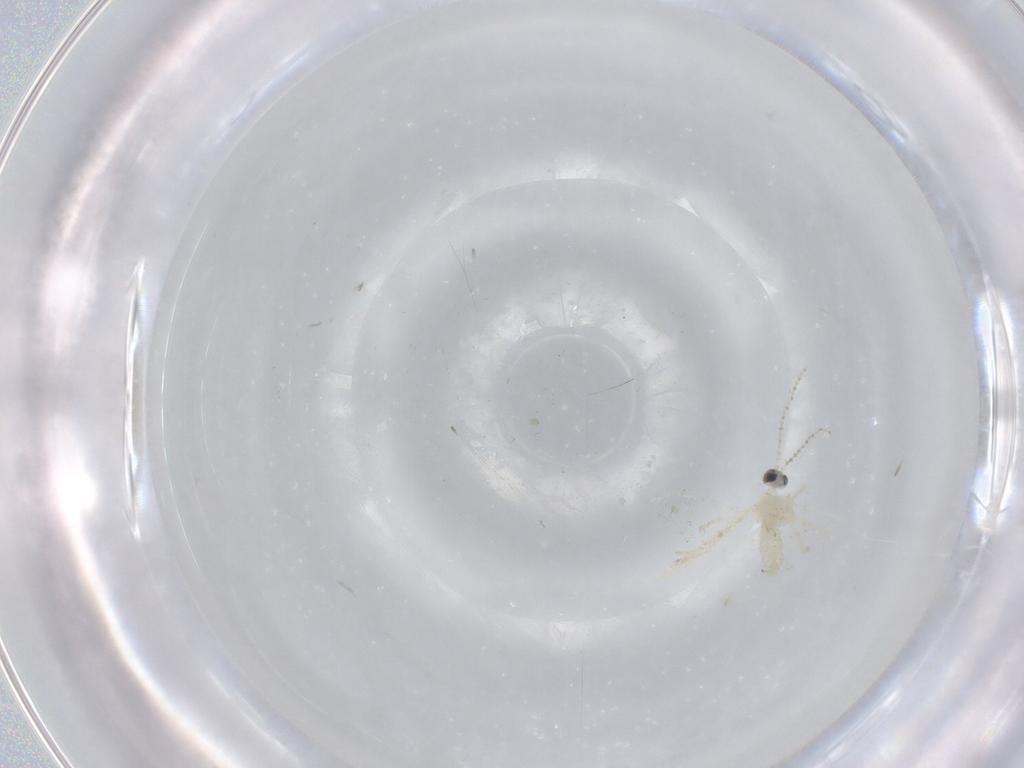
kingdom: Animalia
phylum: Arthropoda
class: Insecta
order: Diptera
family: Cecidomyiidae
